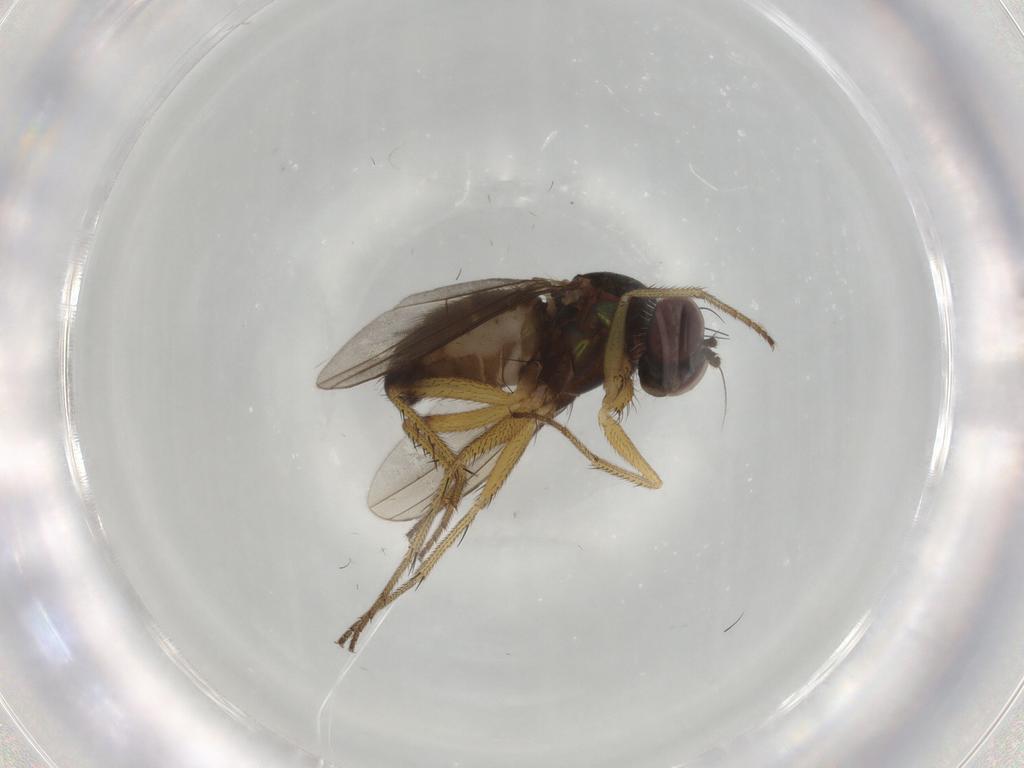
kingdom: Animalia
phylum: Arthropoda
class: Insecta
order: Diptera
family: Dolichopodidae
